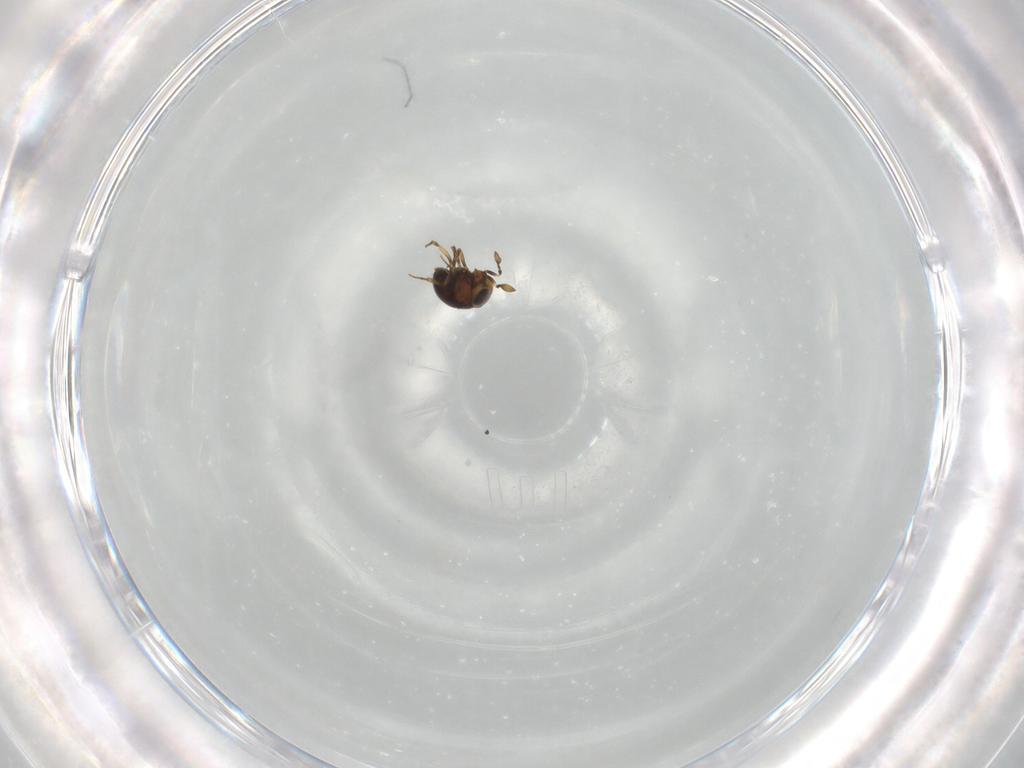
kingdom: Animalia
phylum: Arthropoda
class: Insecta
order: Hymenoptera
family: Scelionidae
